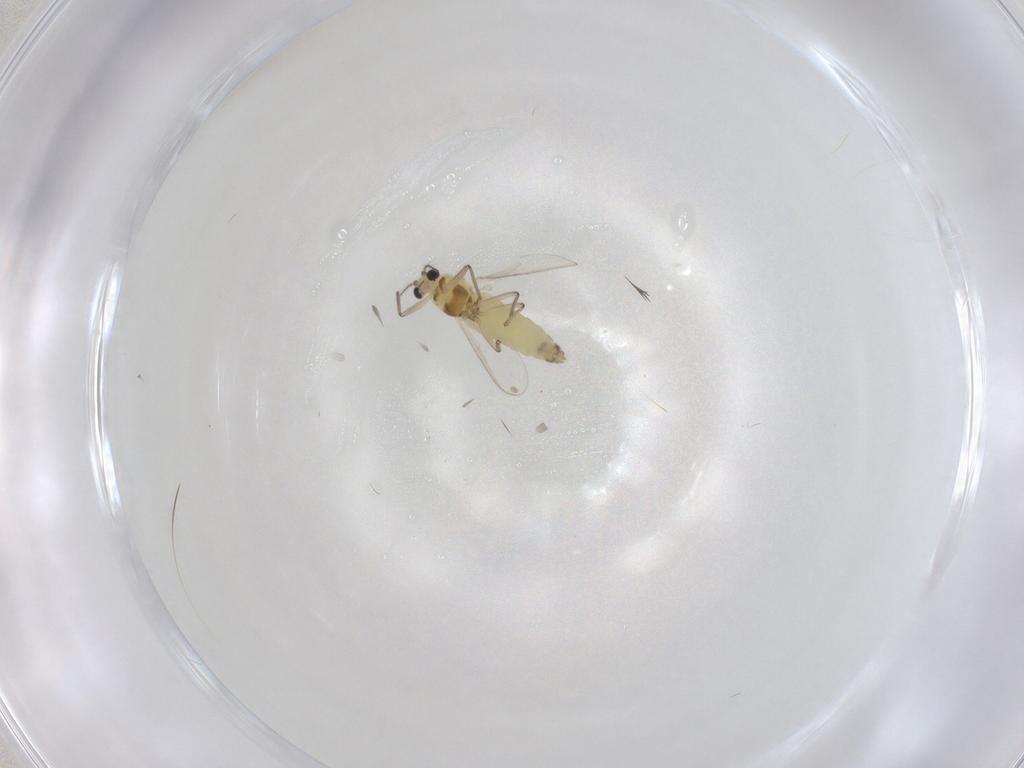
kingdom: Animalia
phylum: Arthropoda
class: Insecta
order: Diptera
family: Chironomidae
